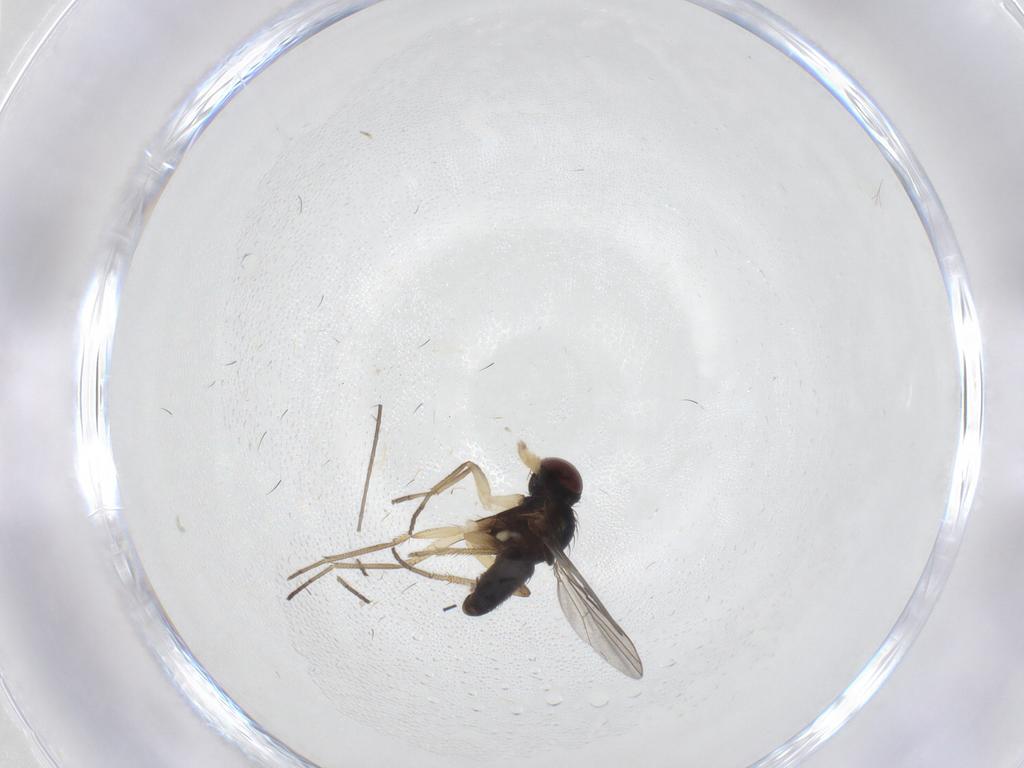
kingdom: Animalia
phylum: Arthropoda
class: Insecta
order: Diptera
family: Dolichopodidae
